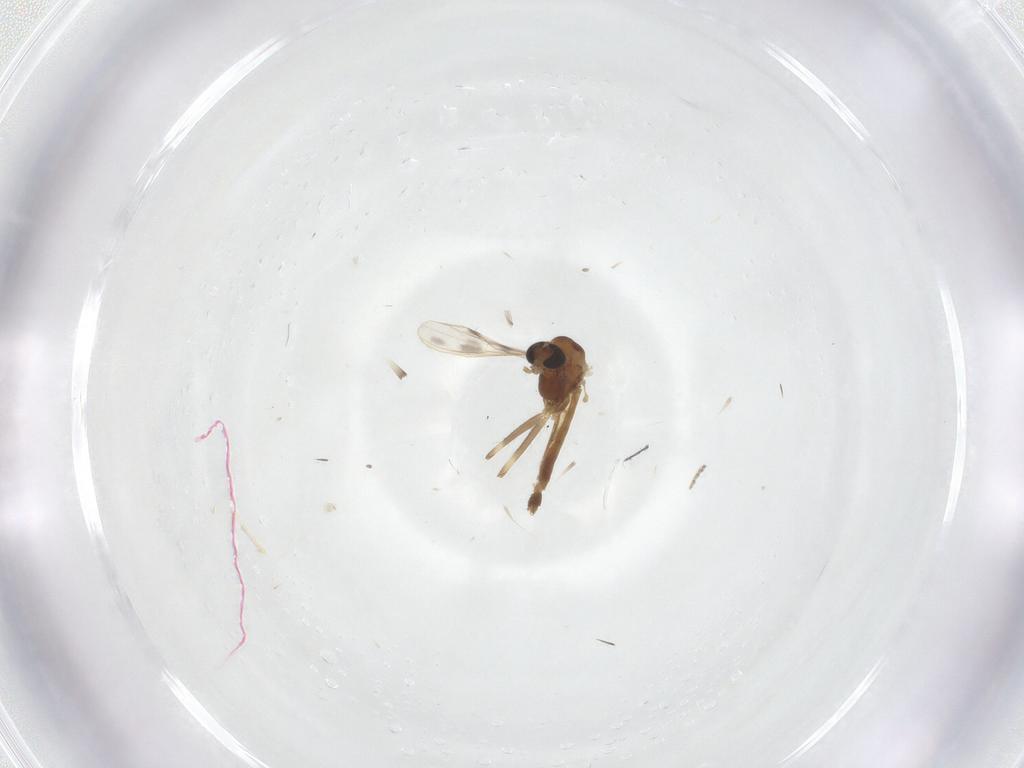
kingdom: Animalia
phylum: Arthropoda
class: Insecta
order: Diptera
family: Chironomidae
